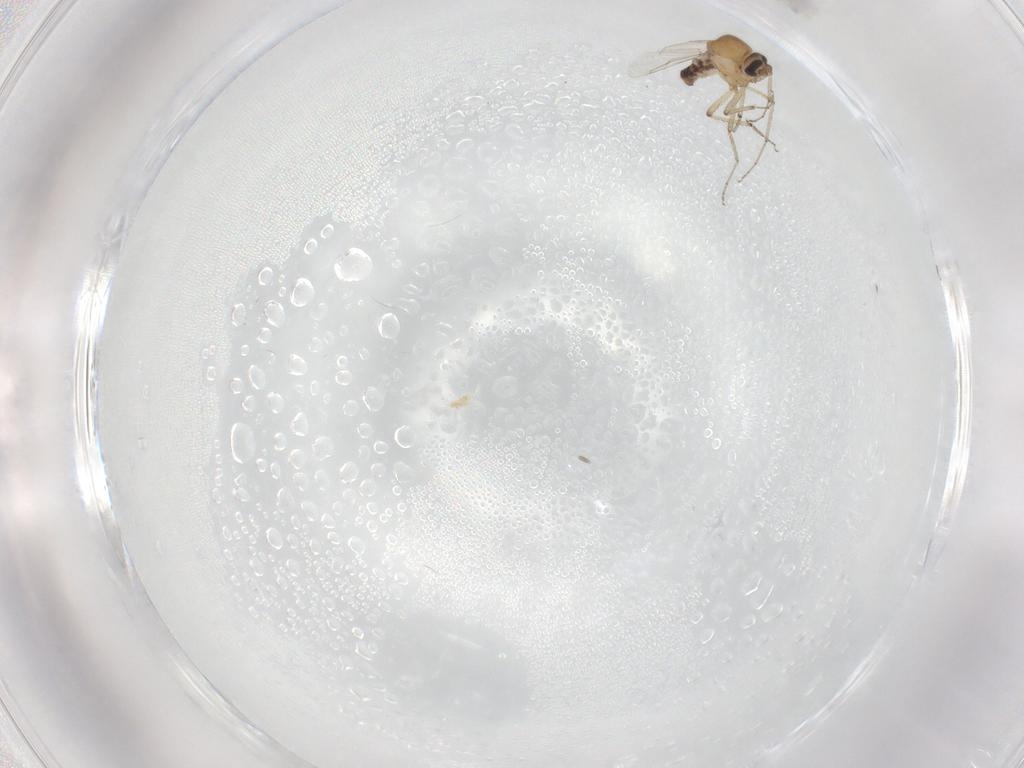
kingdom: Animalia
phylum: Arthropoda
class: Insecta
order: Diptera
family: Ceratopogonidae
